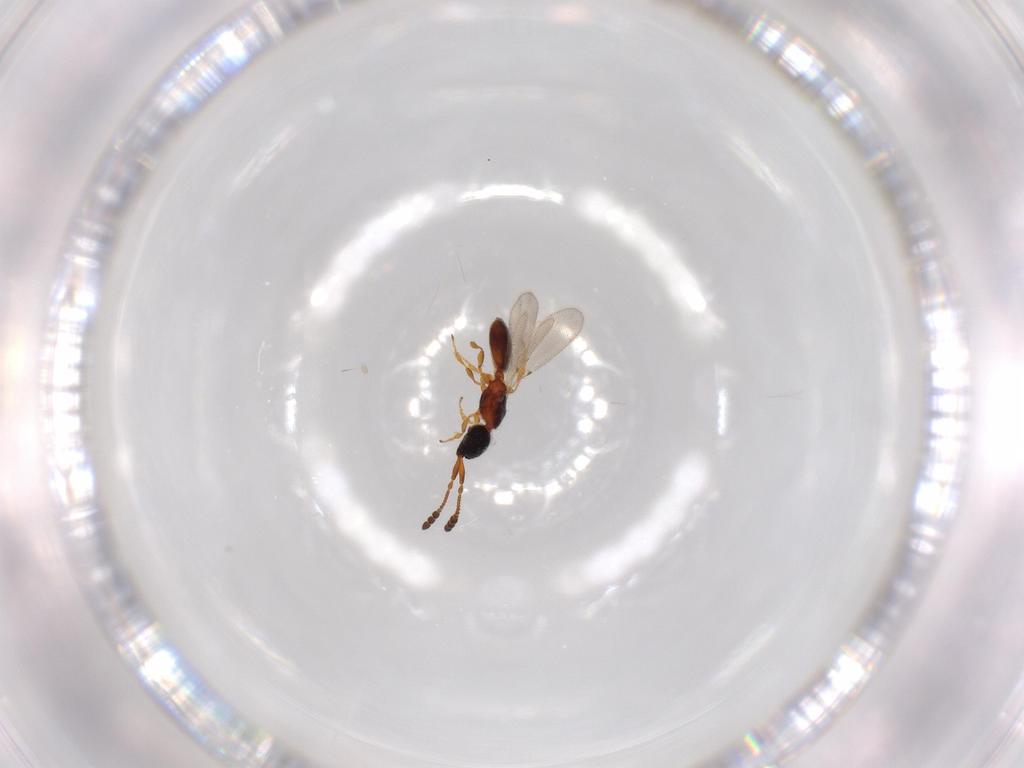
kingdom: Animalia
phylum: Arthropoda
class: Insecta
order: Hymenoptera
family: Diapriidae
